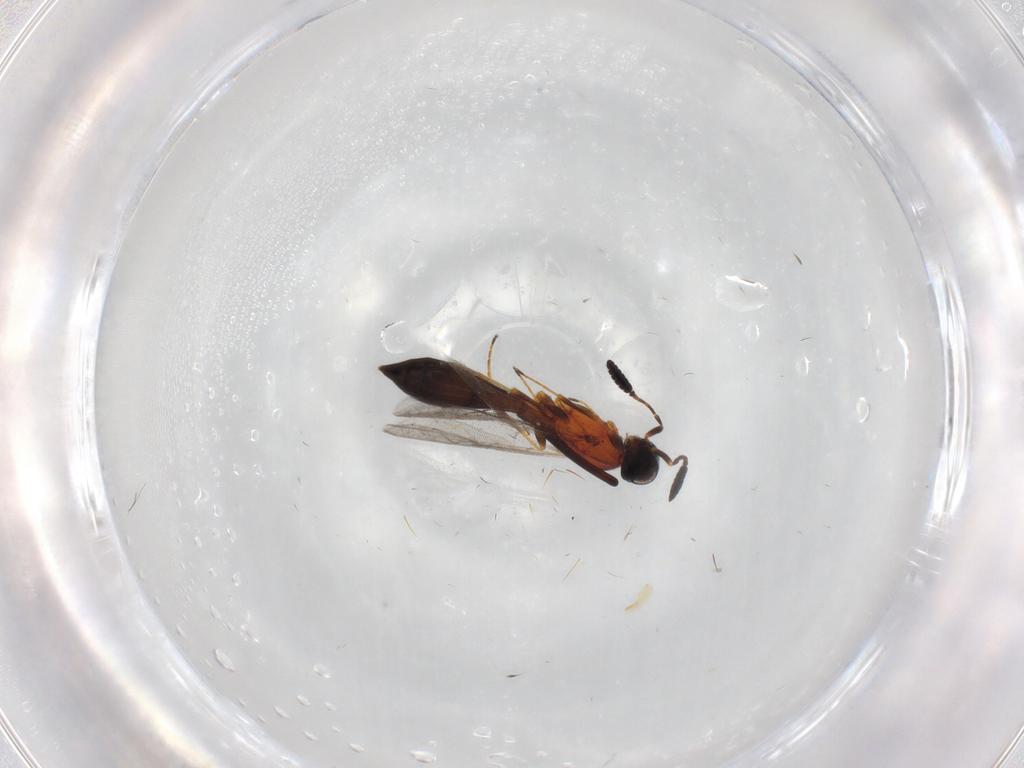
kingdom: Animalia
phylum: Arthropoda
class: Insecta
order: Hymenoptera
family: Scelionidae
